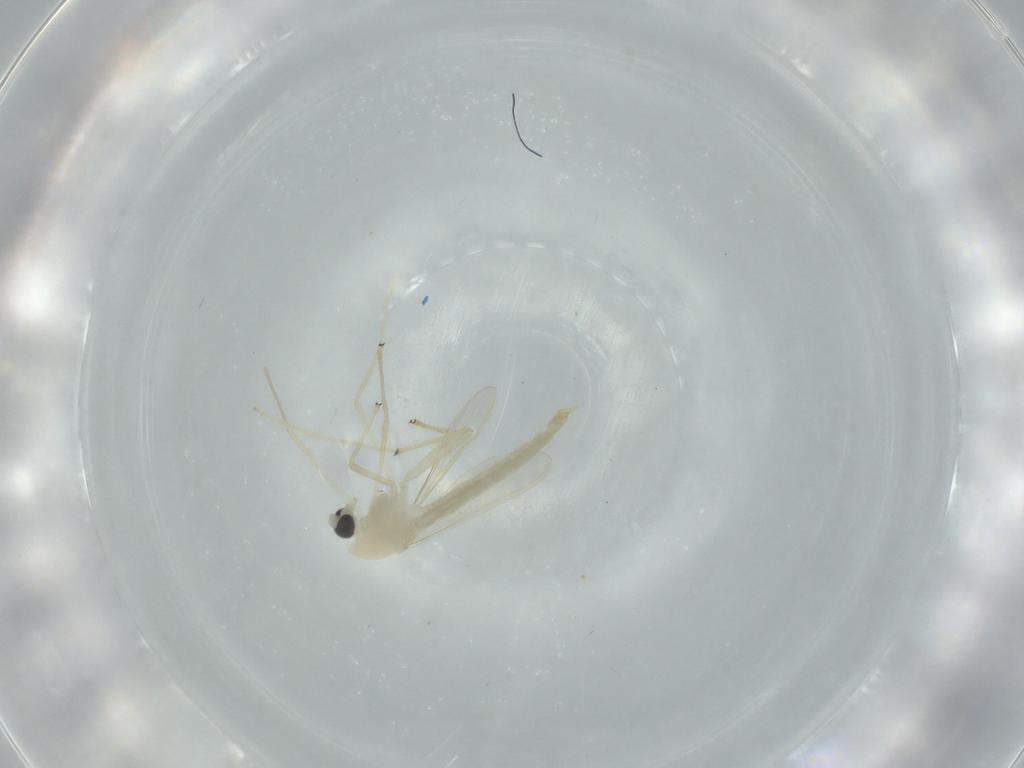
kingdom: Animalia
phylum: Arthropoda
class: Insecta
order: Diptera
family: Chironomidae
